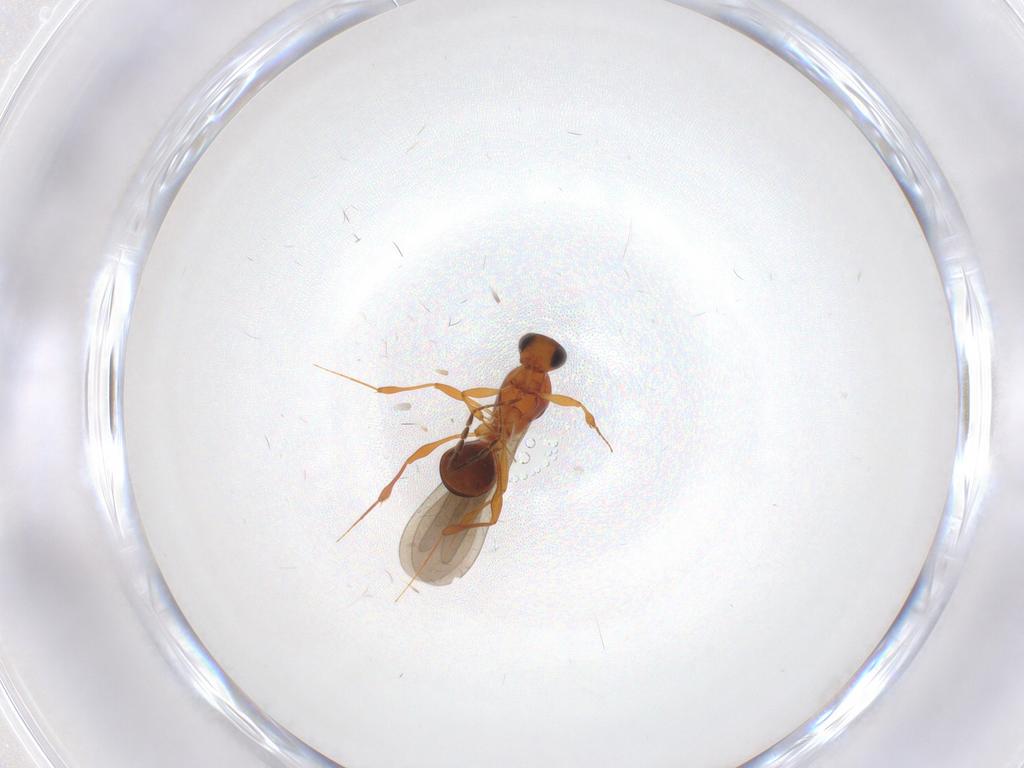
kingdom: Animalia
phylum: Arthropoda
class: Insecta
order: Hymenoptera
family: Platygastridae
